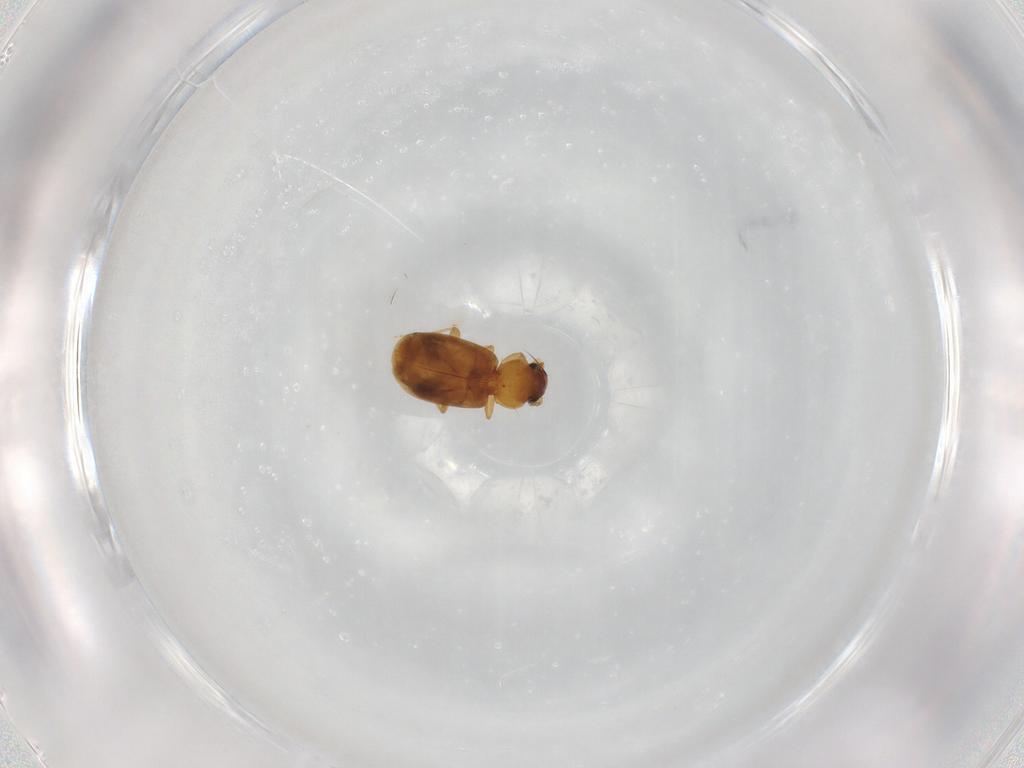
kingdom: Animalia
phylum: Arthropoda
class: Insecta
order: Coleoptera
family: Carabidae
